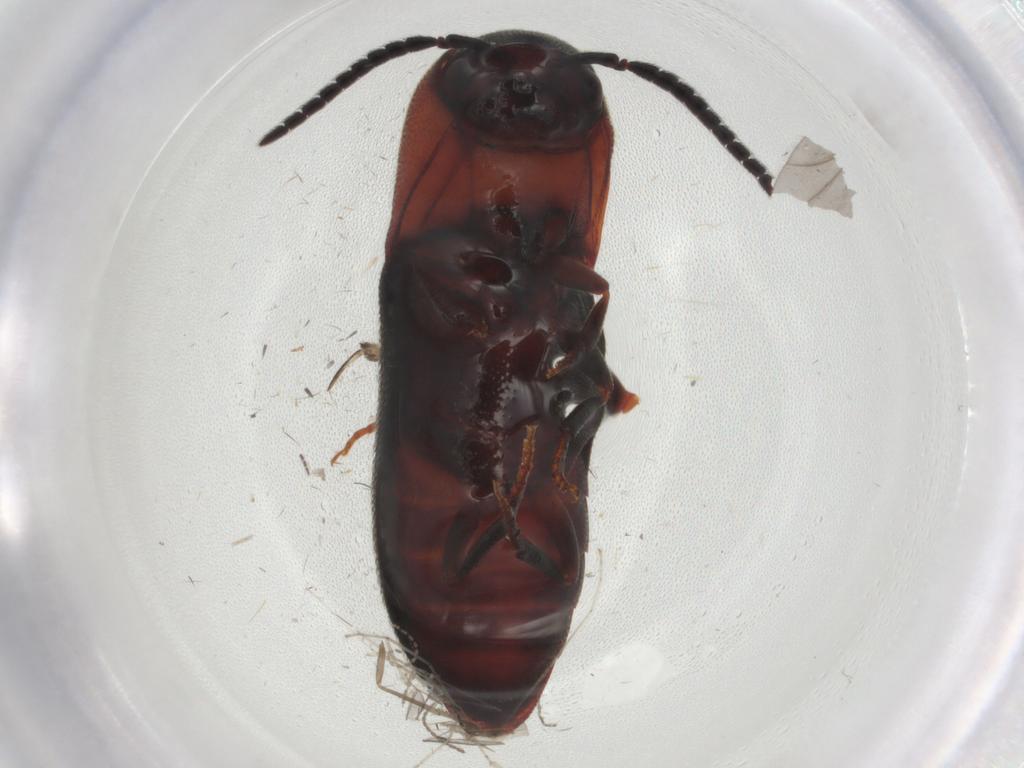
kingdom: Animalia
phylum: Arthropoda
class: Insecta
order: Coleoptera
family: Eucnemidae
